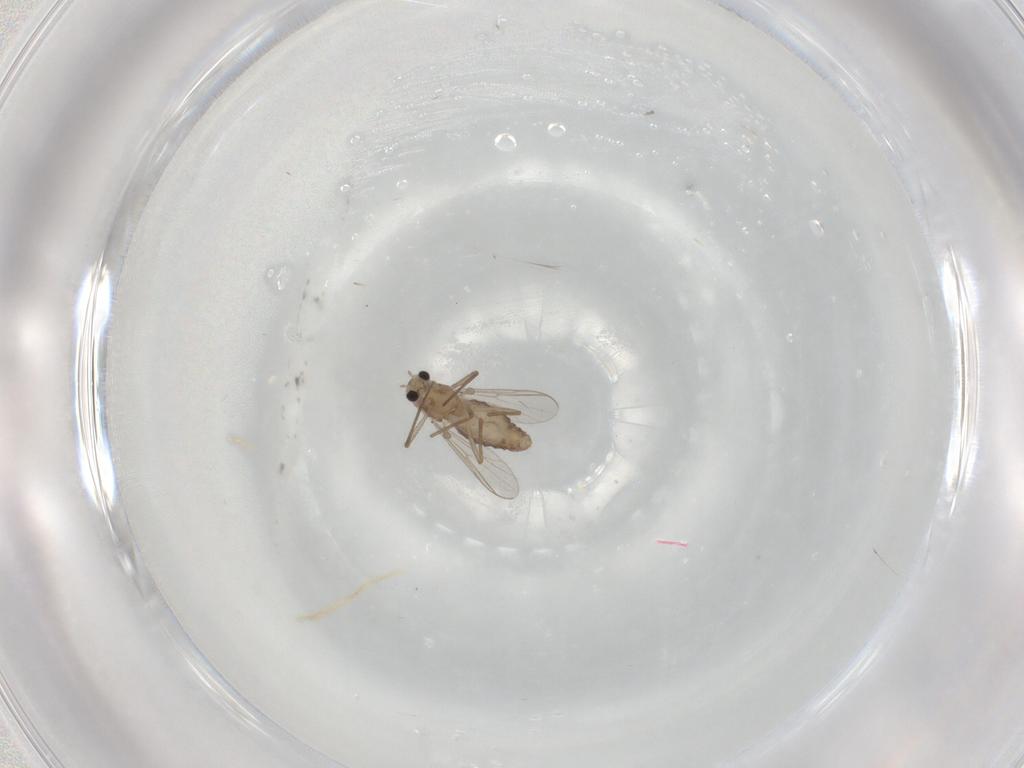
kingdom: Animalia
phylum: Arthropoda
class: Insecta
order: Diptera
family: Chironomidae
